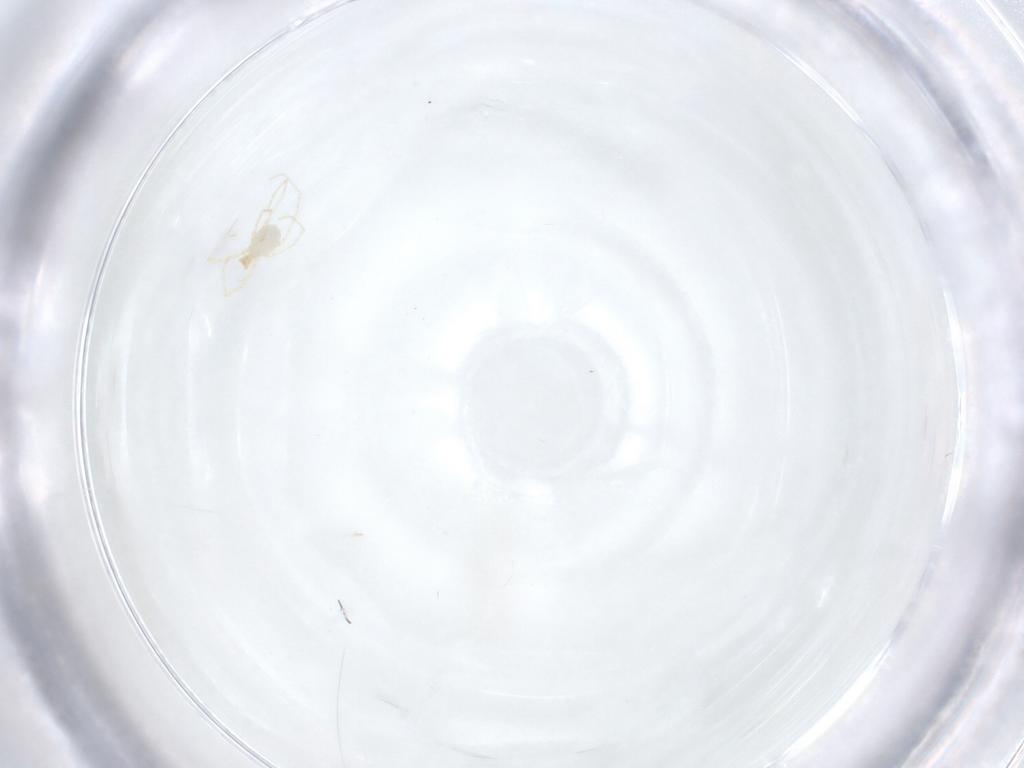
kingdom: Animalia
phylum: Arthropoda
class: Arachnida
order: Trombidiformes
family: Erythraeidae
